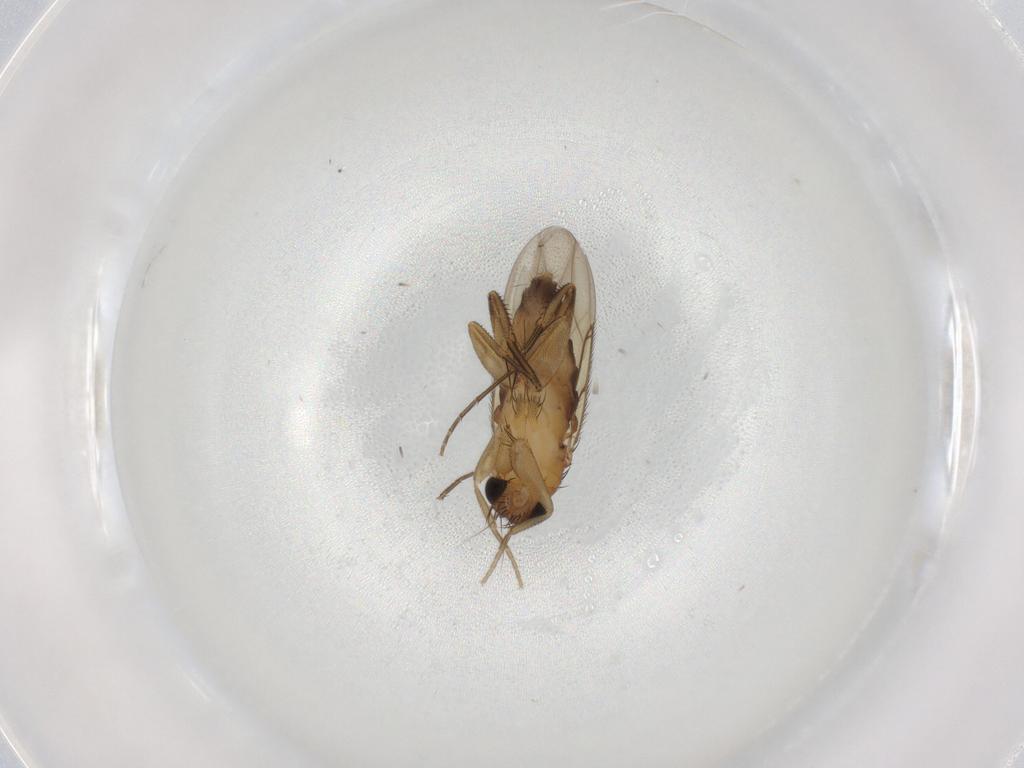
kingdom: Animalia
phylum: Arthropoda
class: Insecta
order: Diptera
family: Phoridae
